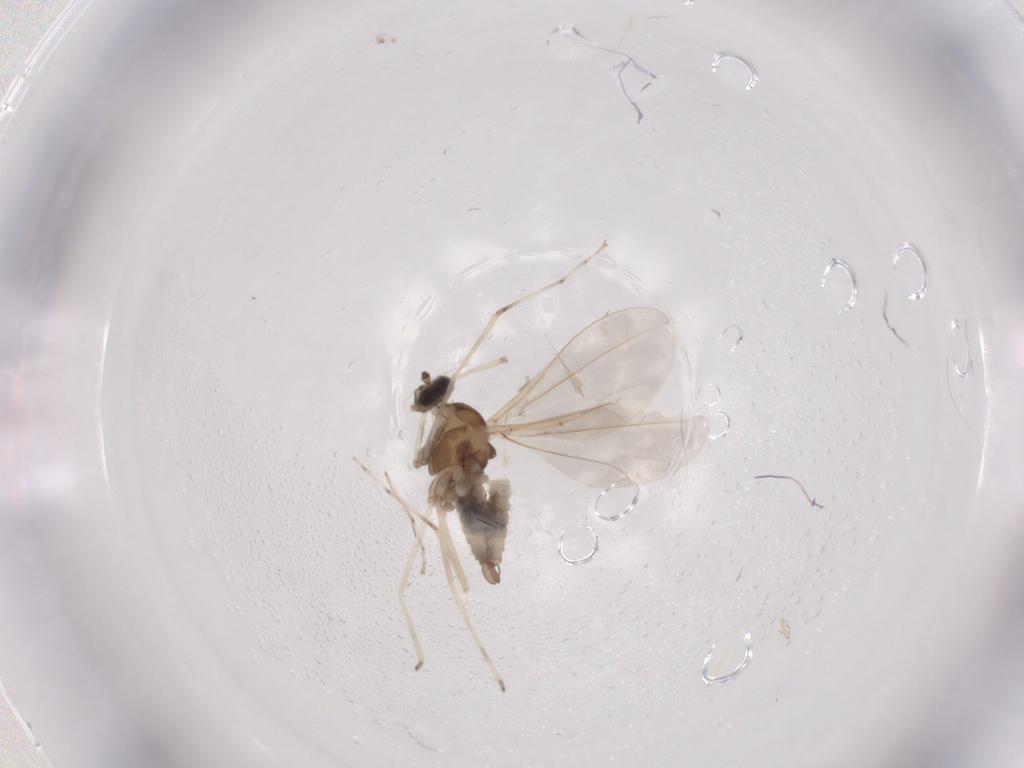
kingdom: Animalia
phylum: Arthropoda
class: Insecta
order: Diptera
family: Cecidomyiidae
